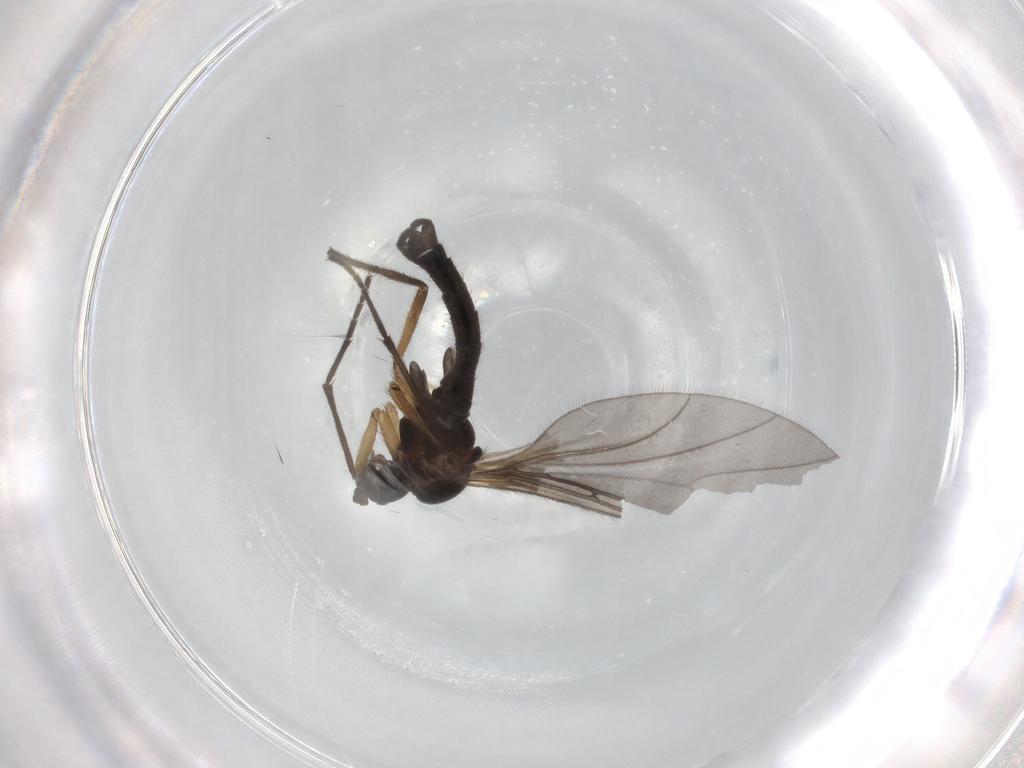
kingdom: Animalia
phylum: Arthropoda
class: Insecta
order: Diptera
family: Sciaridae
